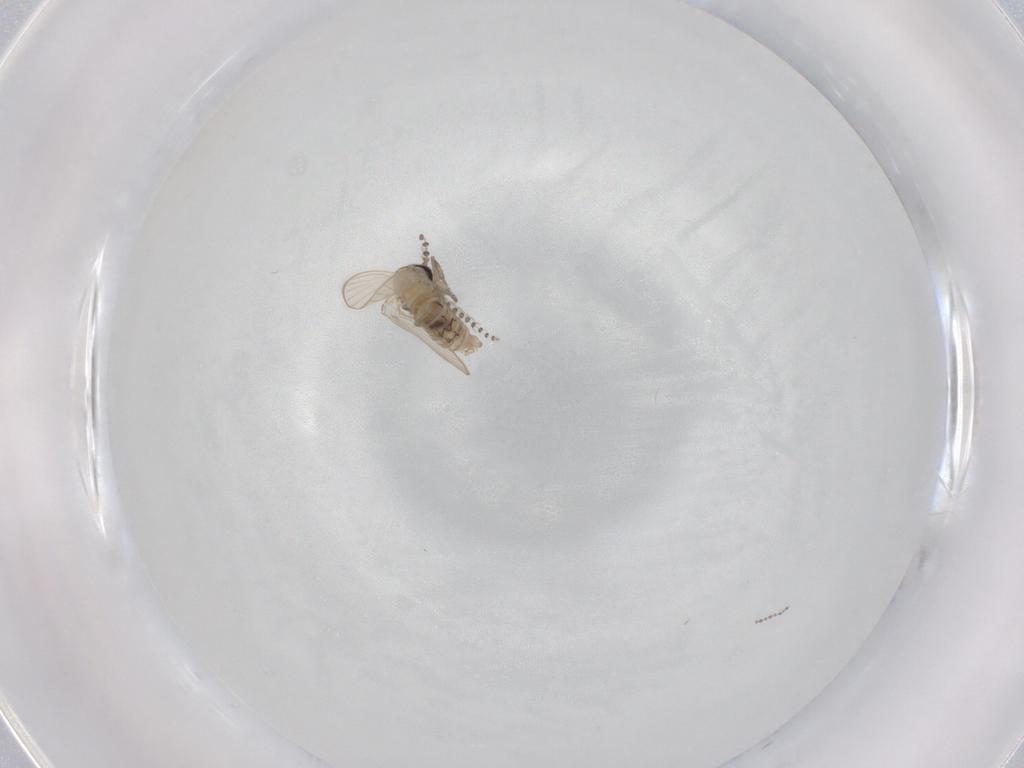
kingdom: Animalia
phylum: Arthropoda
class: Insecta
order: Diptera
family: Psychodidae
